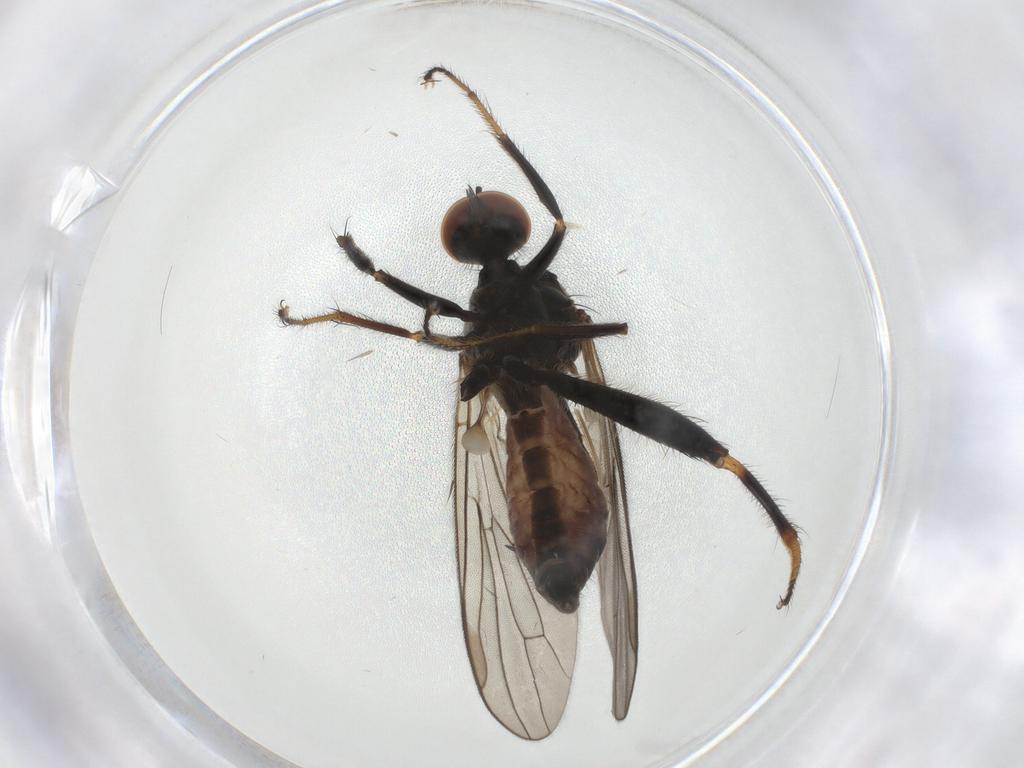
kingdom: Animalia
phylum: Arthropoda
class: Insecta
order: Diptera
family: Hybotidae
